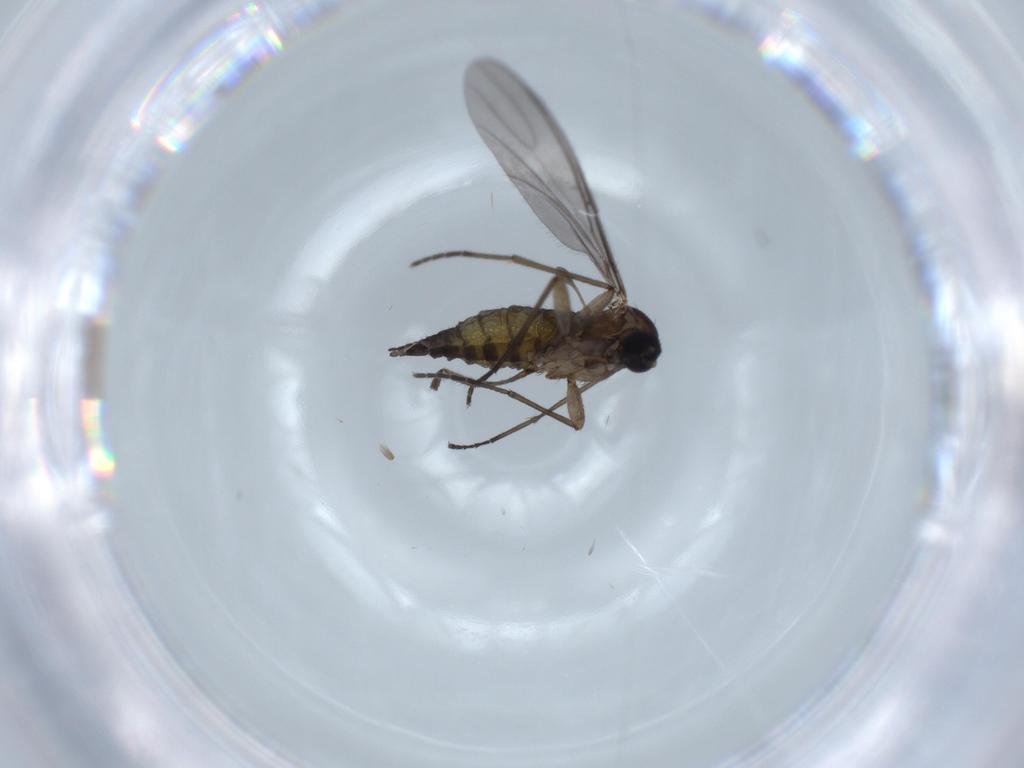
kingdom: Animalia
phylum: Arthropoda
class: Insecta
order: Diptera
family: Sciaridae
